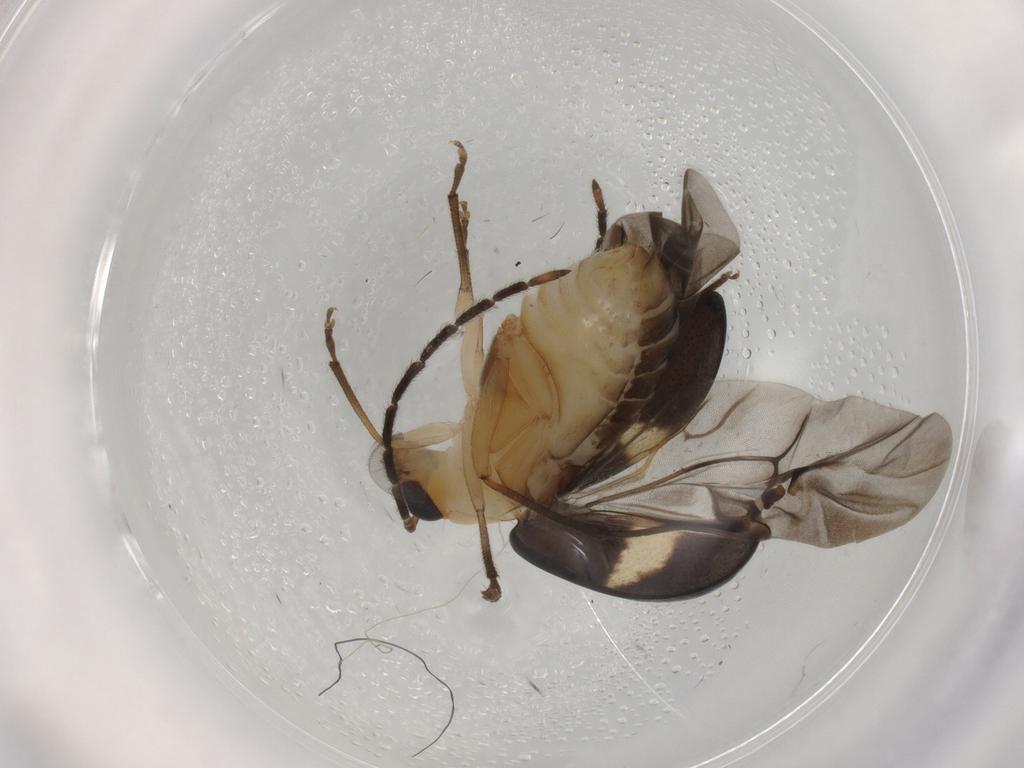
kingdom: Animalia
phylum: Arthropoda
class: Insecta
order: Coleoptera
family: Chrysomelidae
